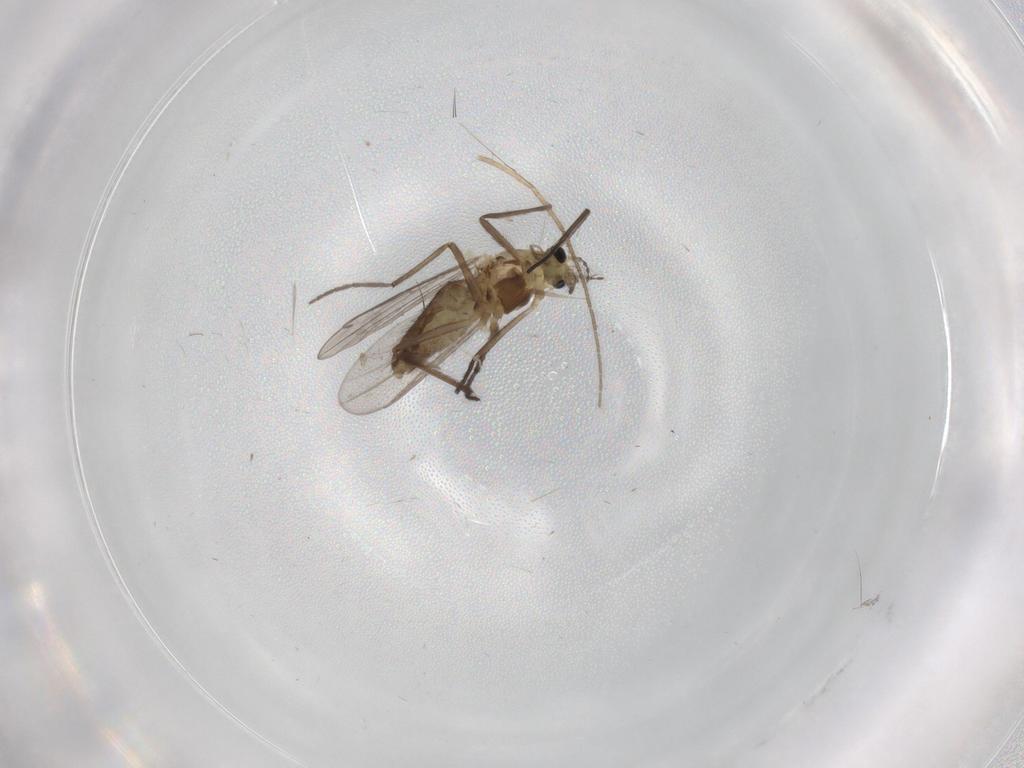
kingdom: Animalia
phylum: Arthropoda
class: Insecta
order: Diptera
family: Chironomidae
